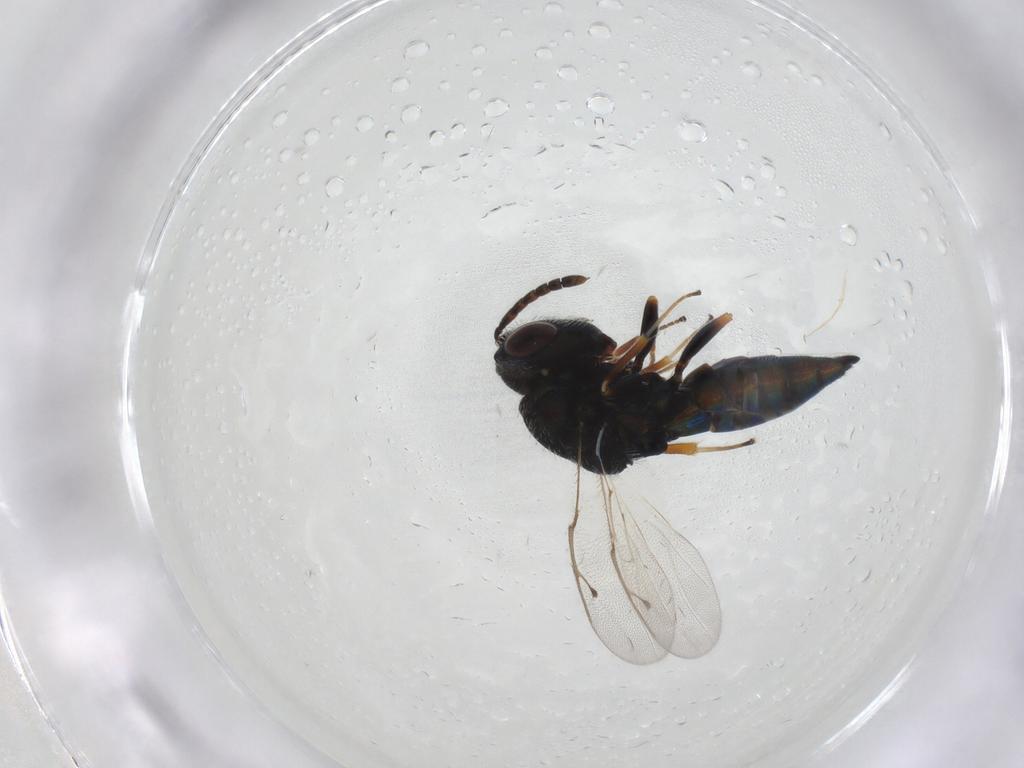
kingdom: Animalia
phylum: Arthropoda
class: Insecta
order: Hymenoptera
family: Pteromalidae
